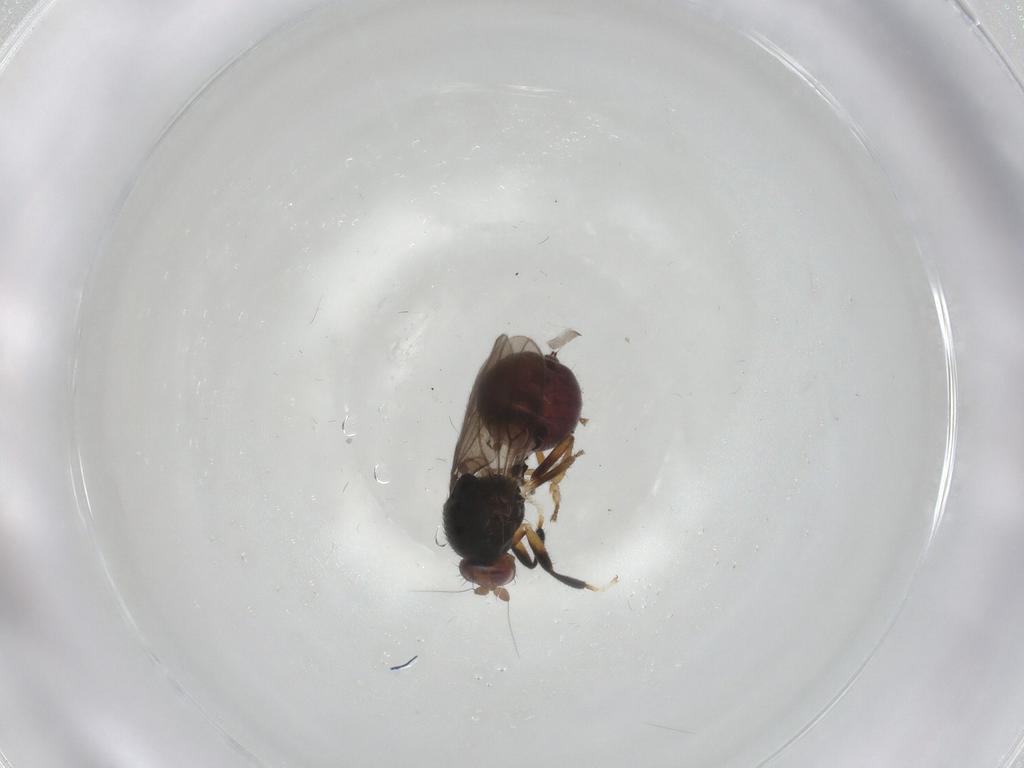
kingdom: Animalia
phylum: Arthropoda
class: Insecta
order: Diptera
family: Sphaeroceridae
